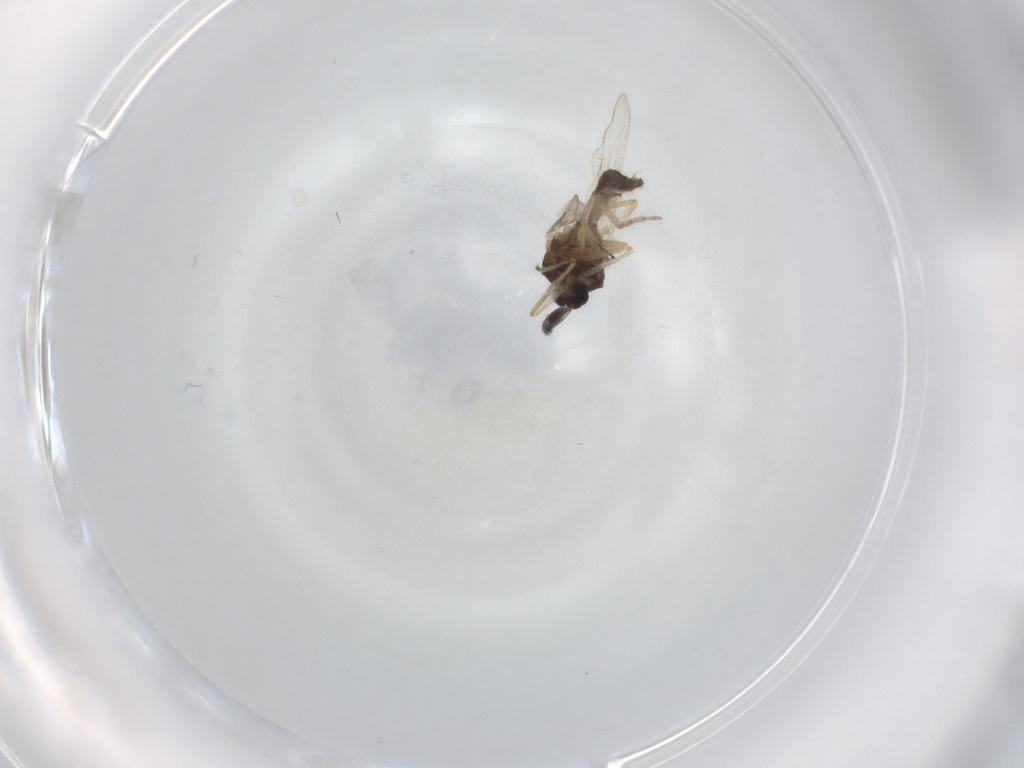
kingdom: Animalia
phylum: Arthropoda
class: Insecta
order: Diptera
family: Ceratopogonidae
